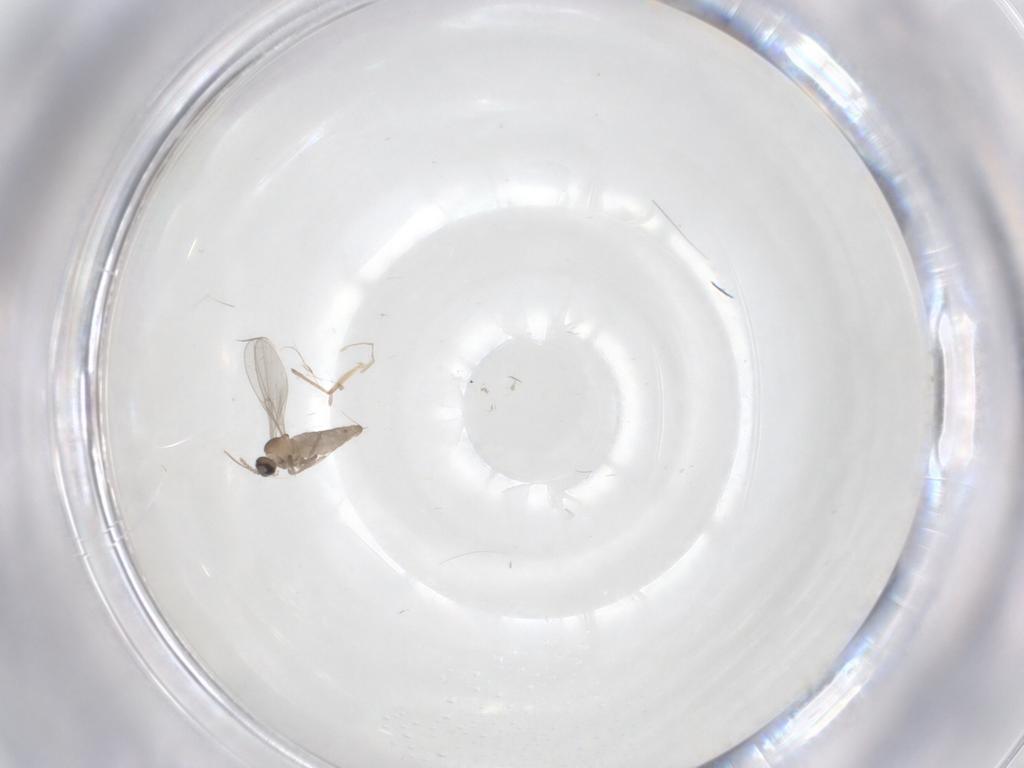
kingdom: Animalia
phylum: Arthropoda
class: Insecta
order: Diptera
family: Cecidomyiidae
